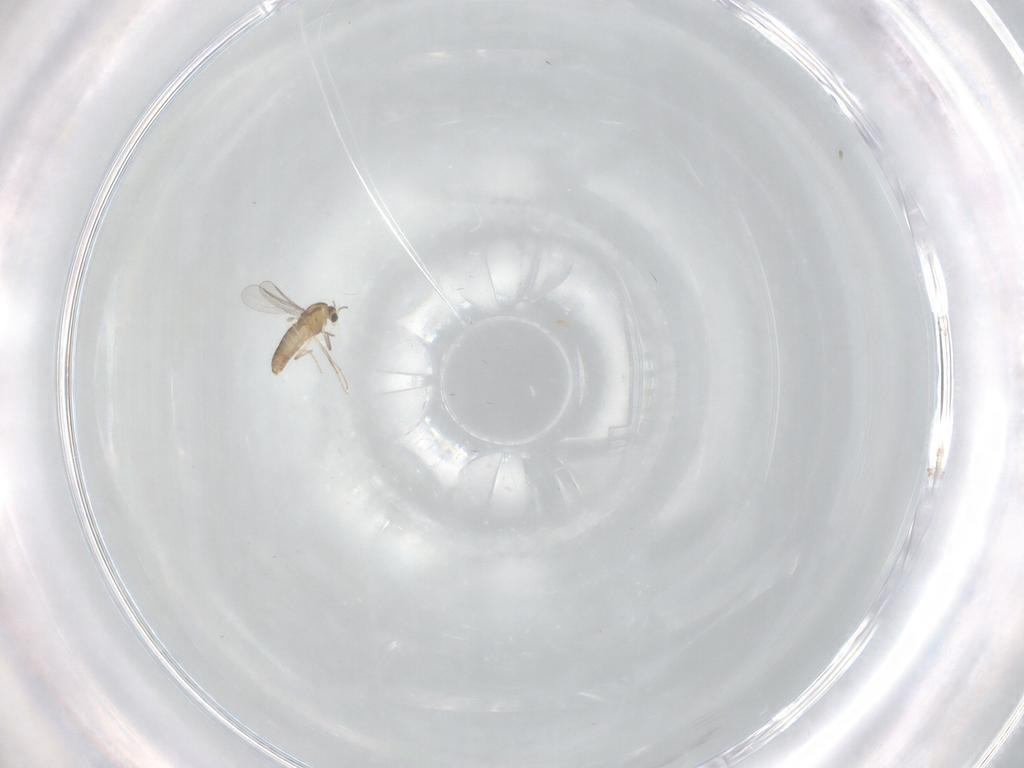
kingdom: Animalia
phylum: Arthropoda
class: Insecta
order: Diptera
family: Chironomidae
